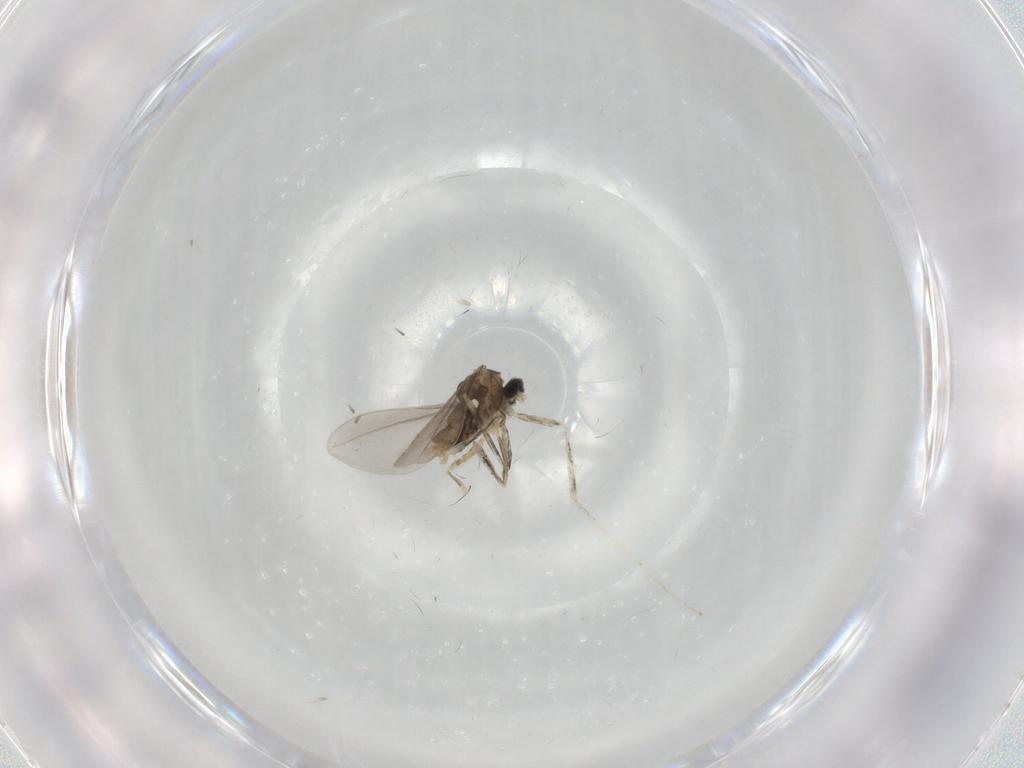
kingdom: Animalia
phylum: Arthropoda
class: Insecta
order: Diptera
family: Cecidomyiidae
